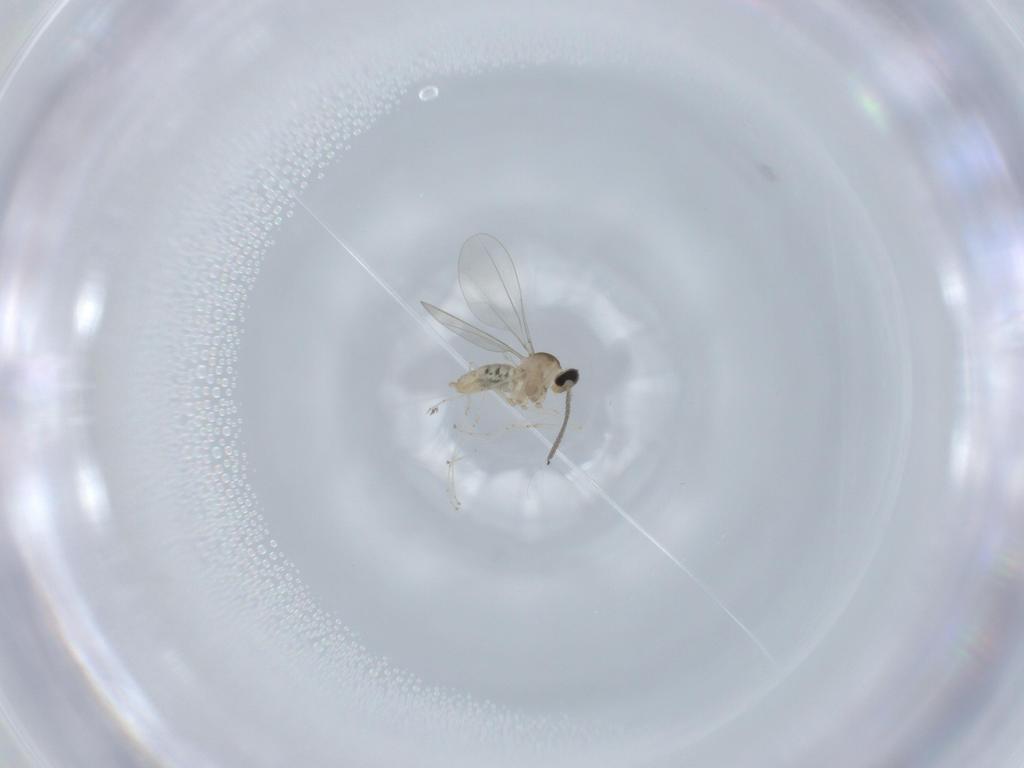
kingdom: Animalia
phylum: Arthropoda
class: Insecta
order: Diptera
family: Cecidomyiidae
